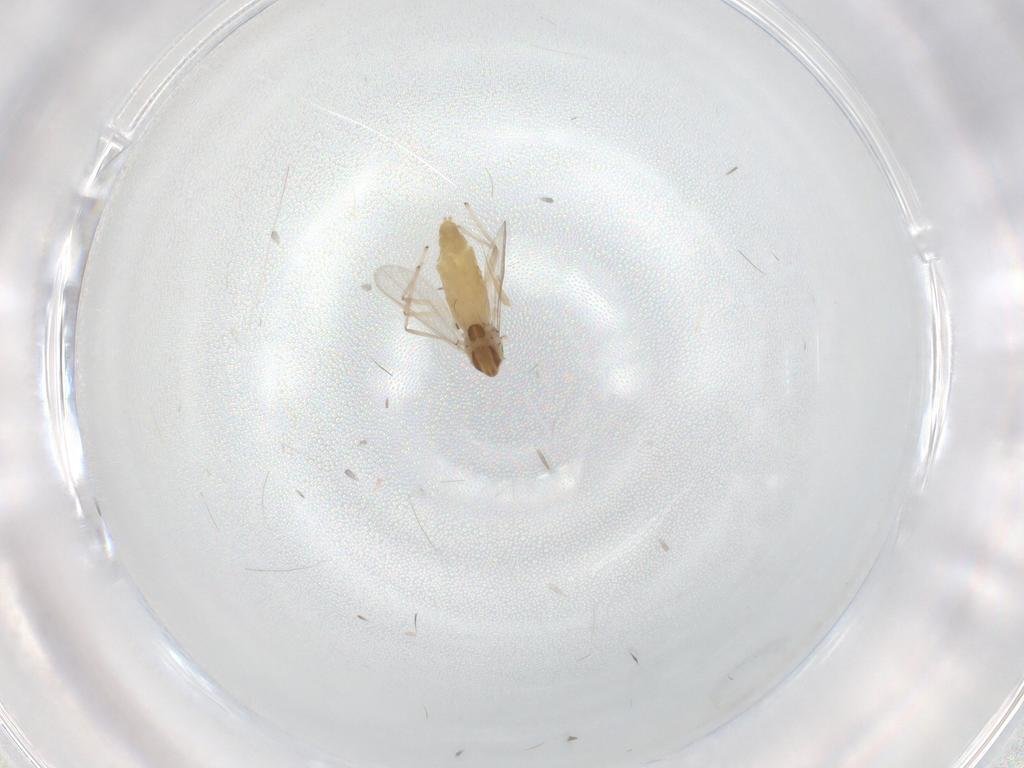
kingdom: Animalia
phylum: Arthropoda
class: Insecta
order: Diptera
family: Chironomidae
